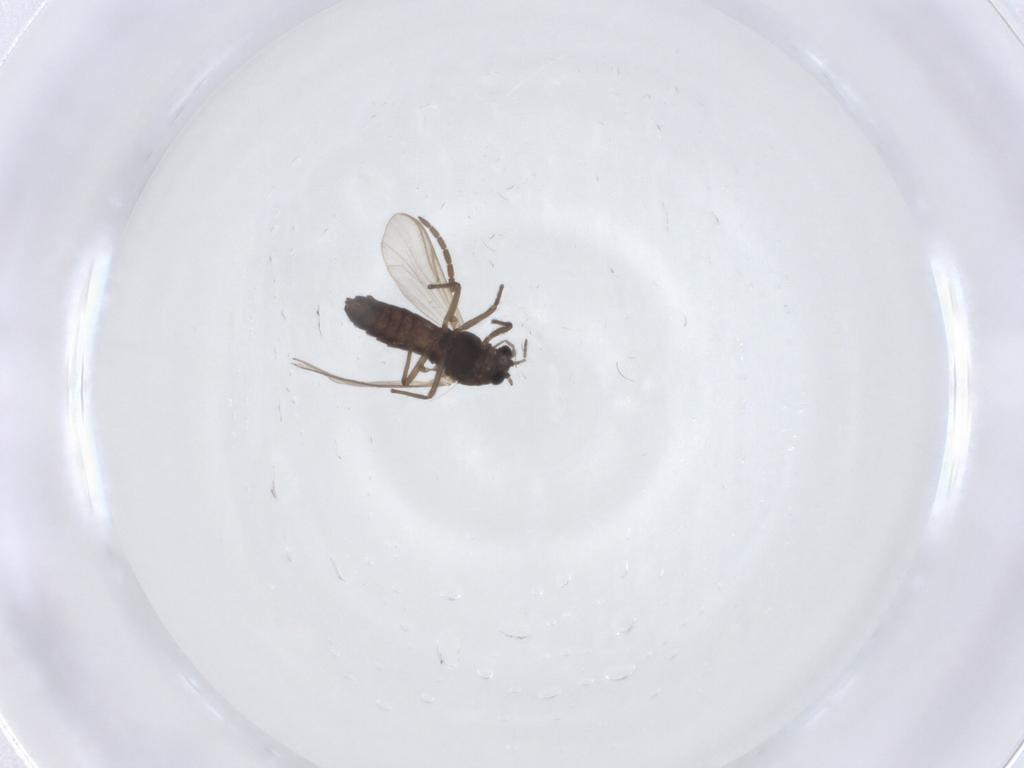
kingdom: Animalia
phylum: Arthropoda
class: Insecta
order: Diptera
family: Mycetophilidae
